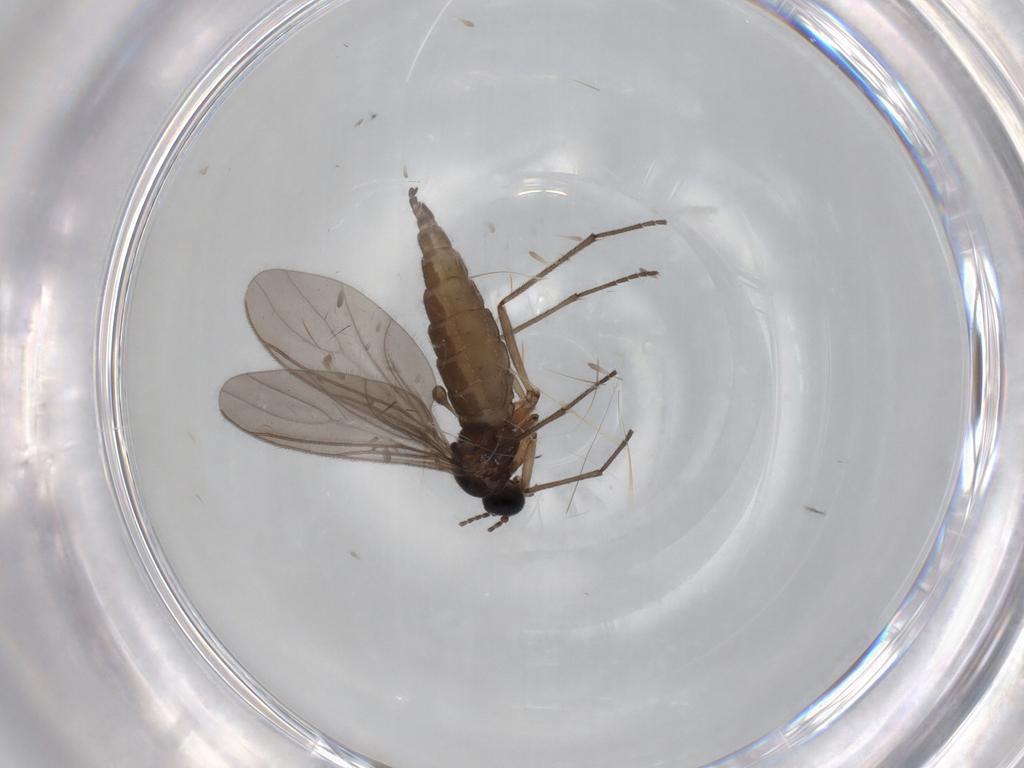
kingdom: Animalia
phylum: Arthropoda
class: Insecta
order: Diptera
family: Sciaridae
